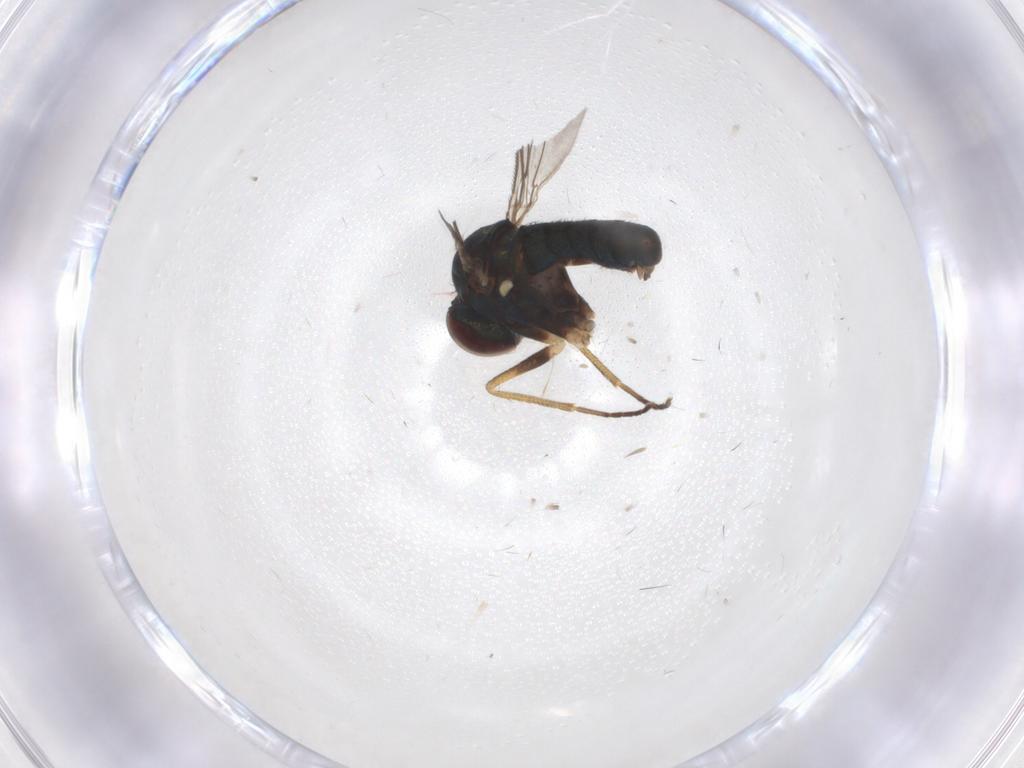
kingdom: Animalia
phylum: Arthropoda
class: Insecta
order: Diptera
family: Dolichopodidae
